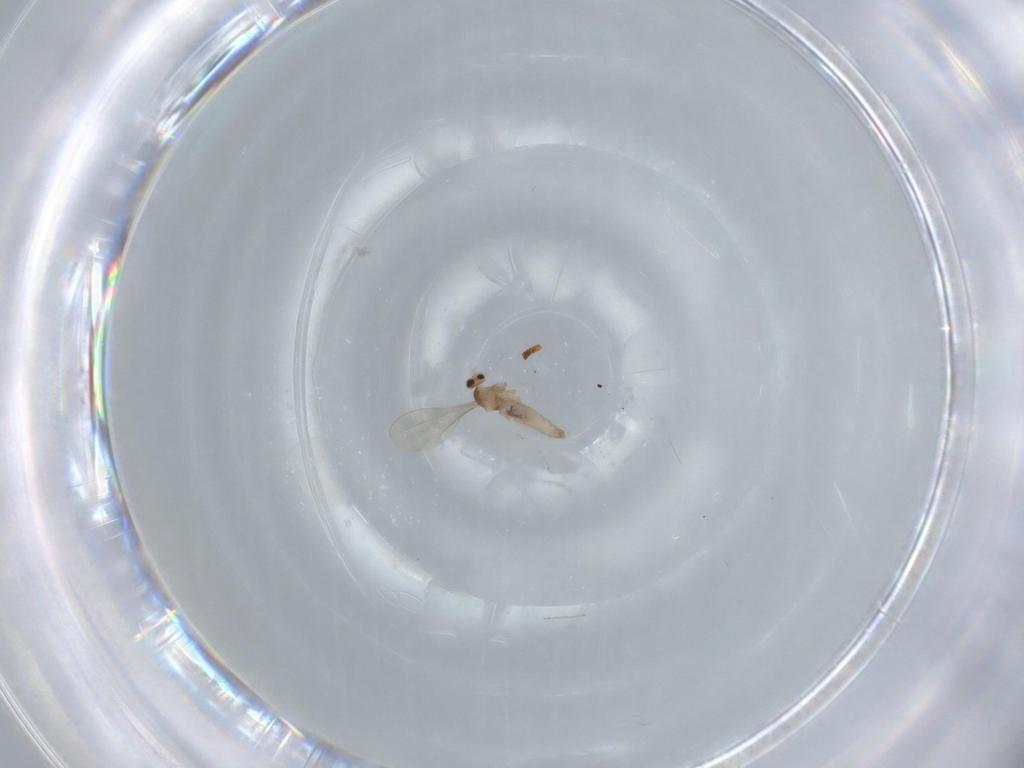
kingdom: Animalia
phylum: Arthropoda
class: Insecta
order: Diptera
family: Cecidomyiidae
